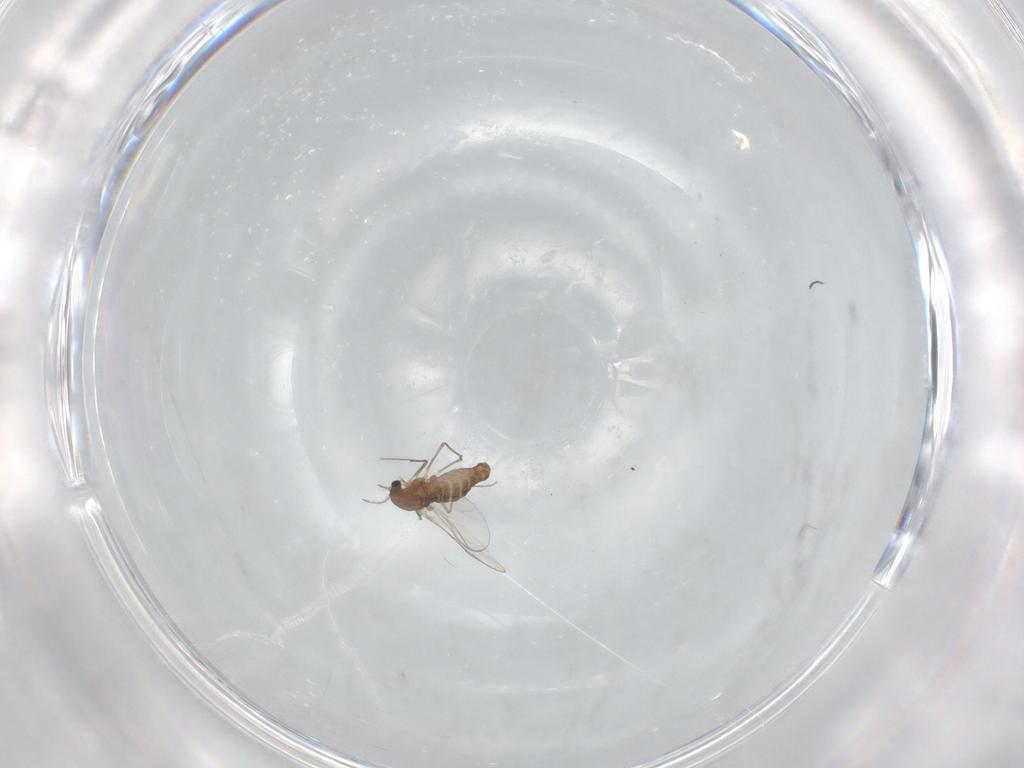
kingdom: Animalia
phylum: Arthropoda
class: Insecta
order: Diptera
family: Chironomidae
